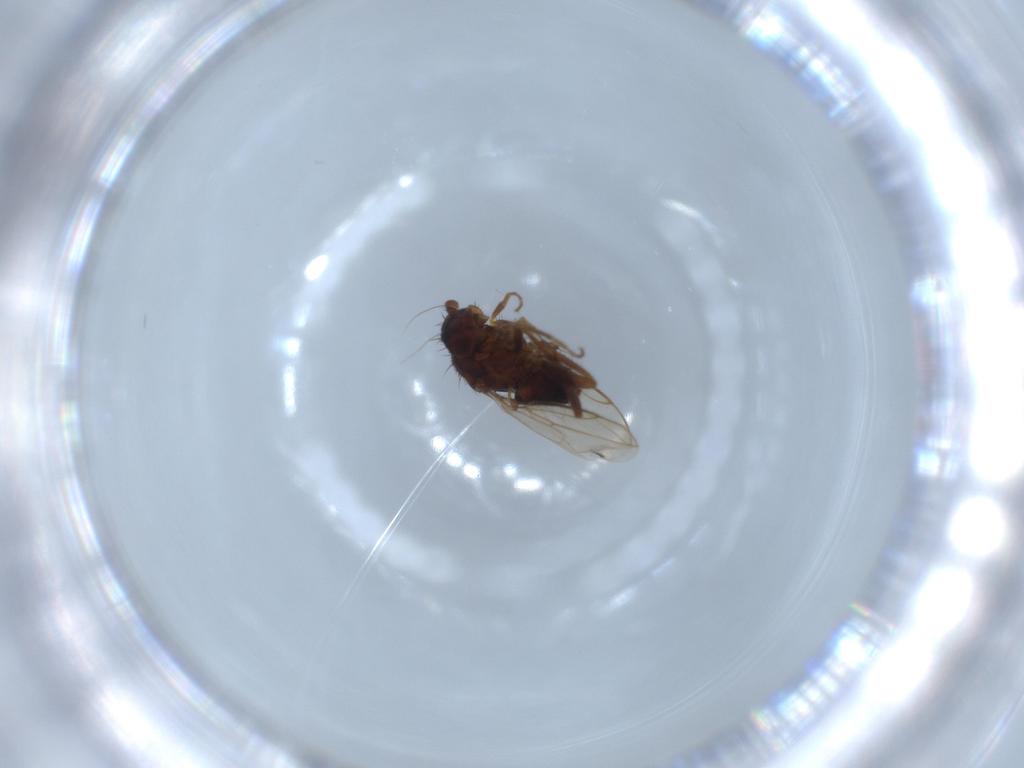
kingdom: Animalia
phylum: Arthropoda
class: Insecta
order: Diptera
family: Sphaeroceridae
